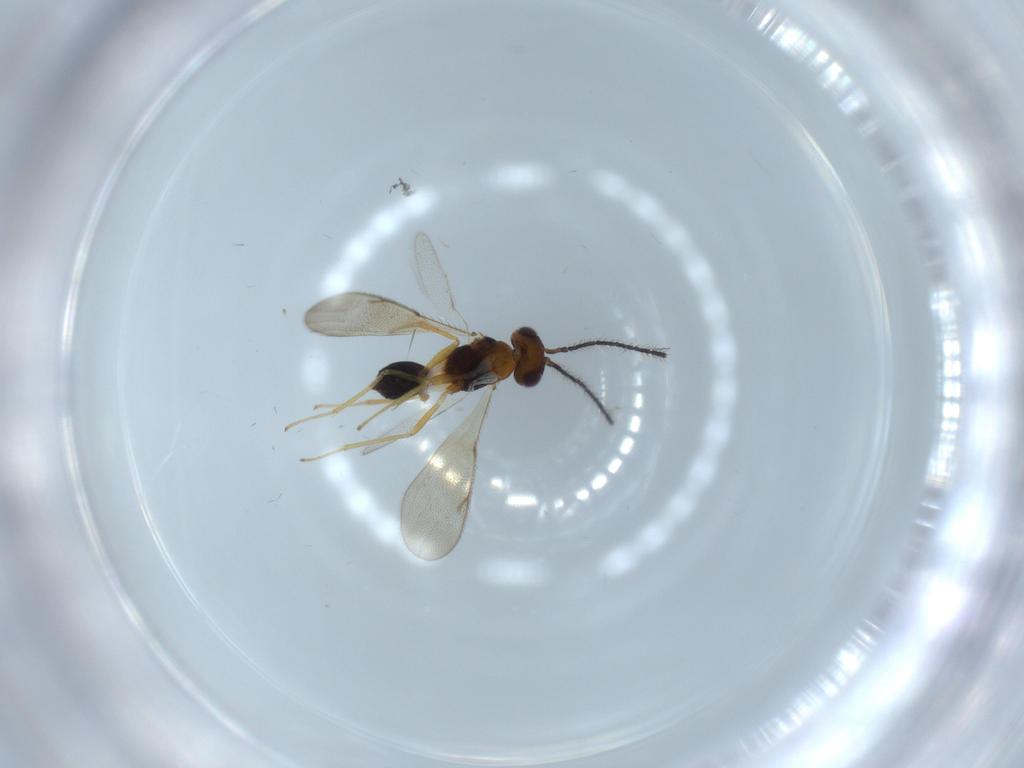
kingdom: Animalia
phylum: Arthropoda
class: Insecta
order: Hymenoptera
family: Diparidae
